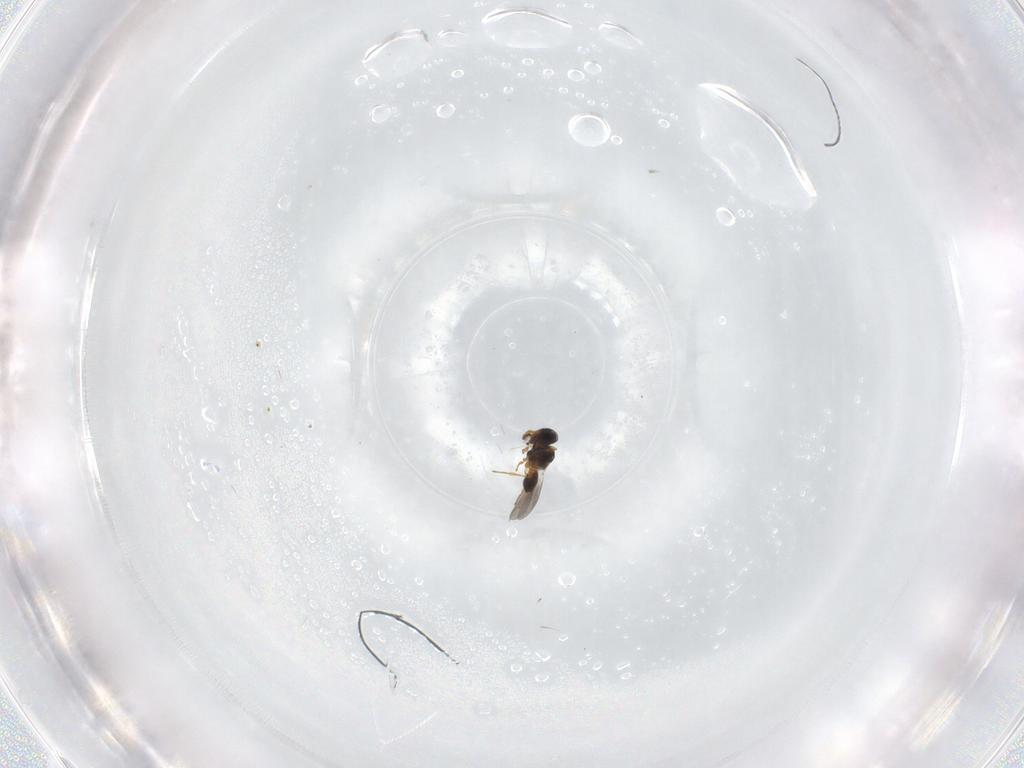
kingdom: Animalia
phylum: Arthropoda
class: Insecta
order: Hymenoptera
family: Platygastridae
